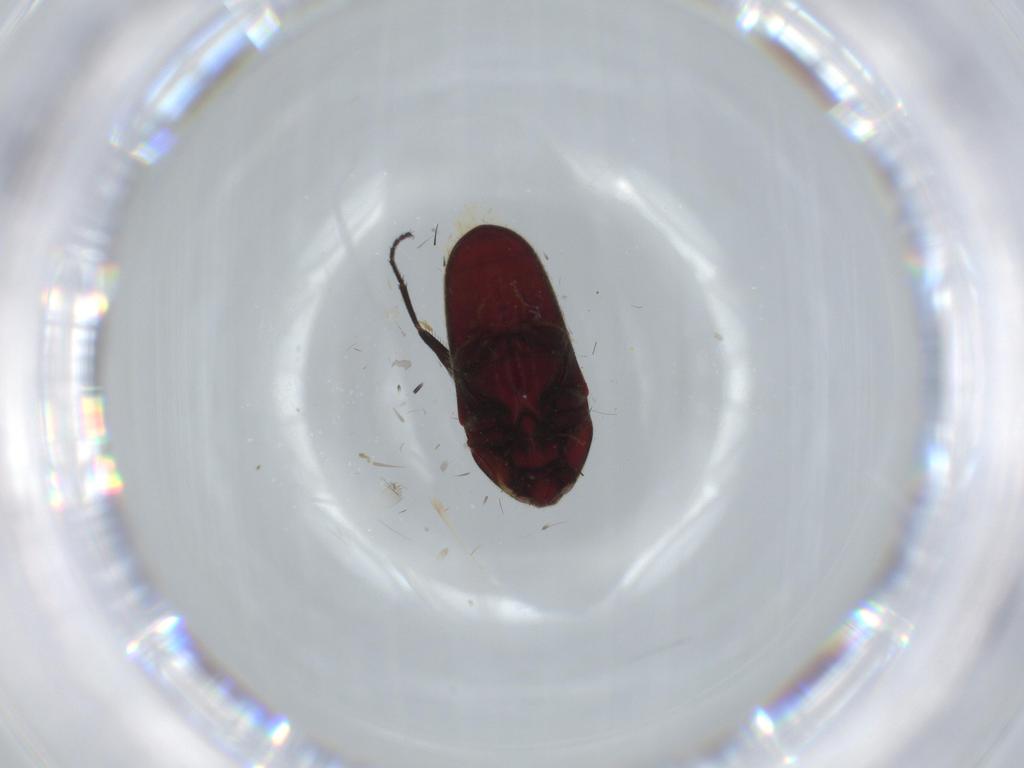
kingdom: Animalia
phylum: Arthropoda
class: Insecta
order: Coleoptera
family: Throscidae
